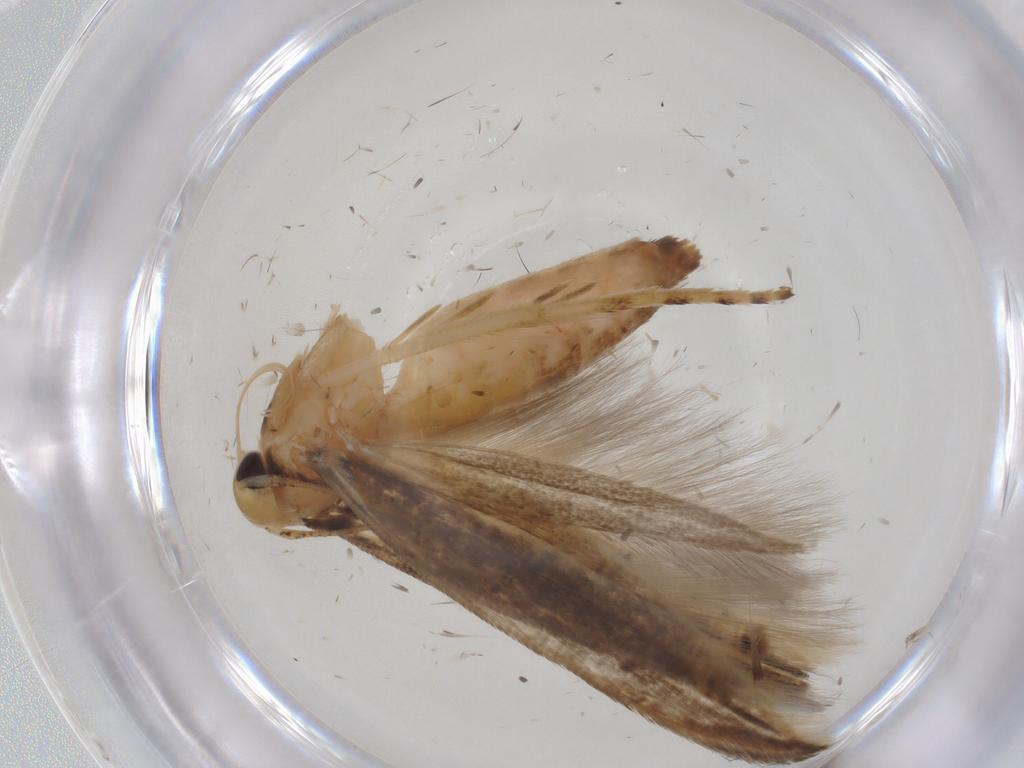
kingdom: Animalia
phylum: Arthropoda
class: Insecta
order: Lepidoptera
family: Momphidae
